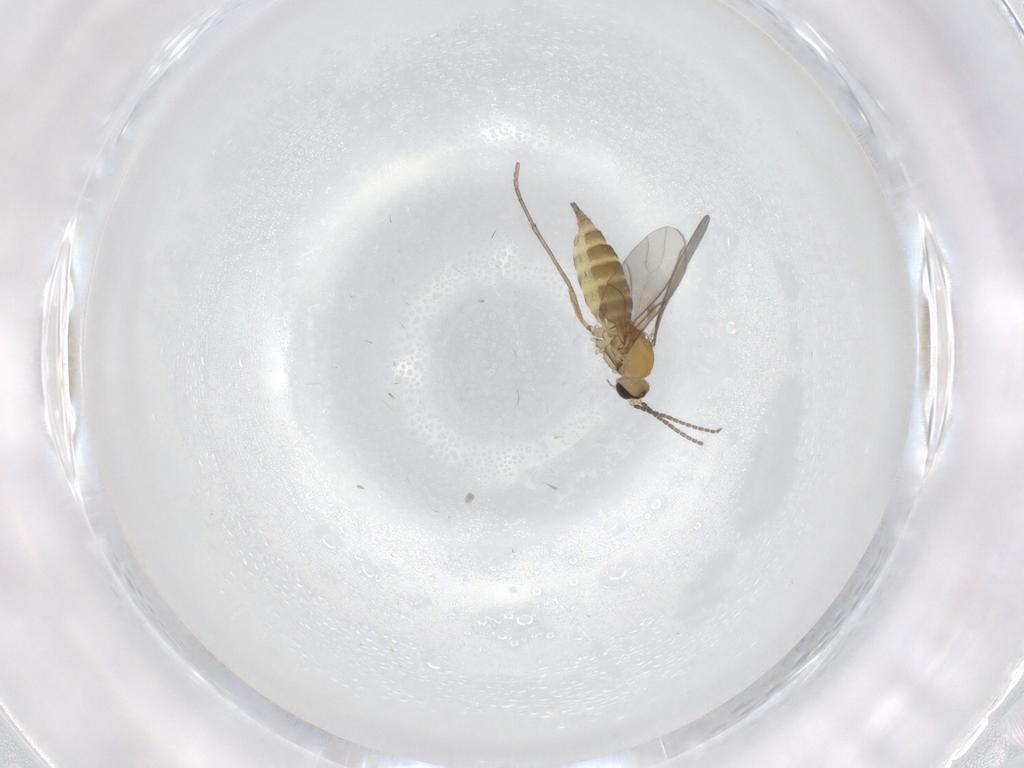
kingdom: Animalia
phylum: Arthropoda
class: Insecta
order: Diptera
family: Sciaridae
